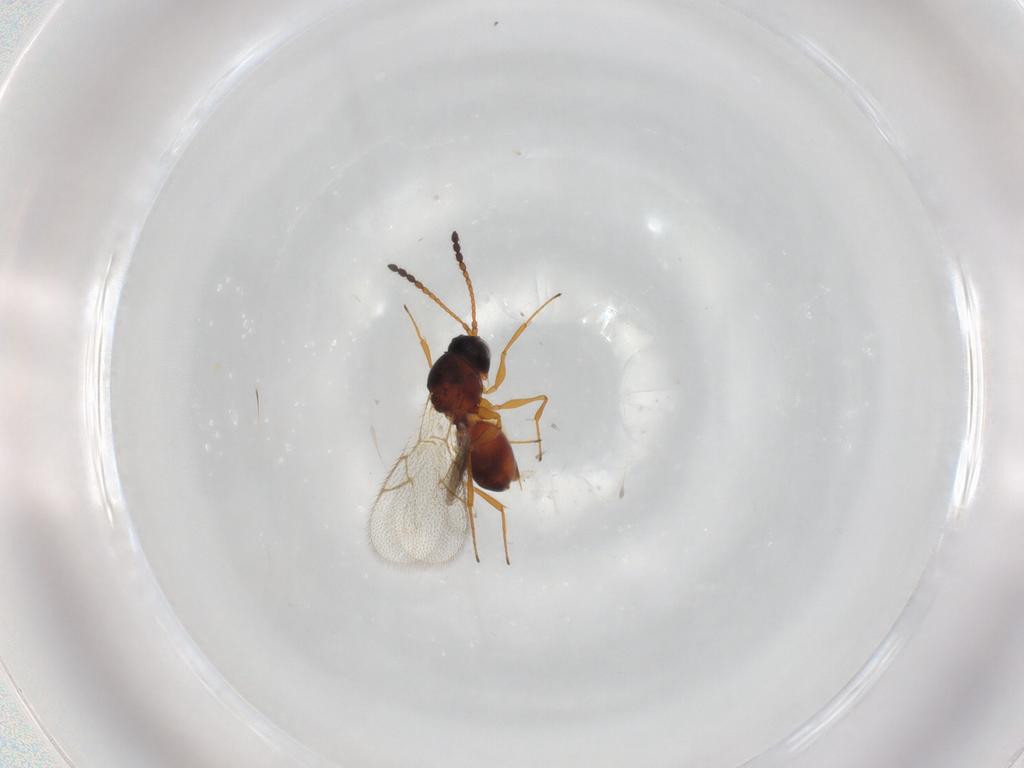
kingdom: Animalia
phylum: Arthropoda
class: Insecta
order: Hymenoptera
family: Figitidae
